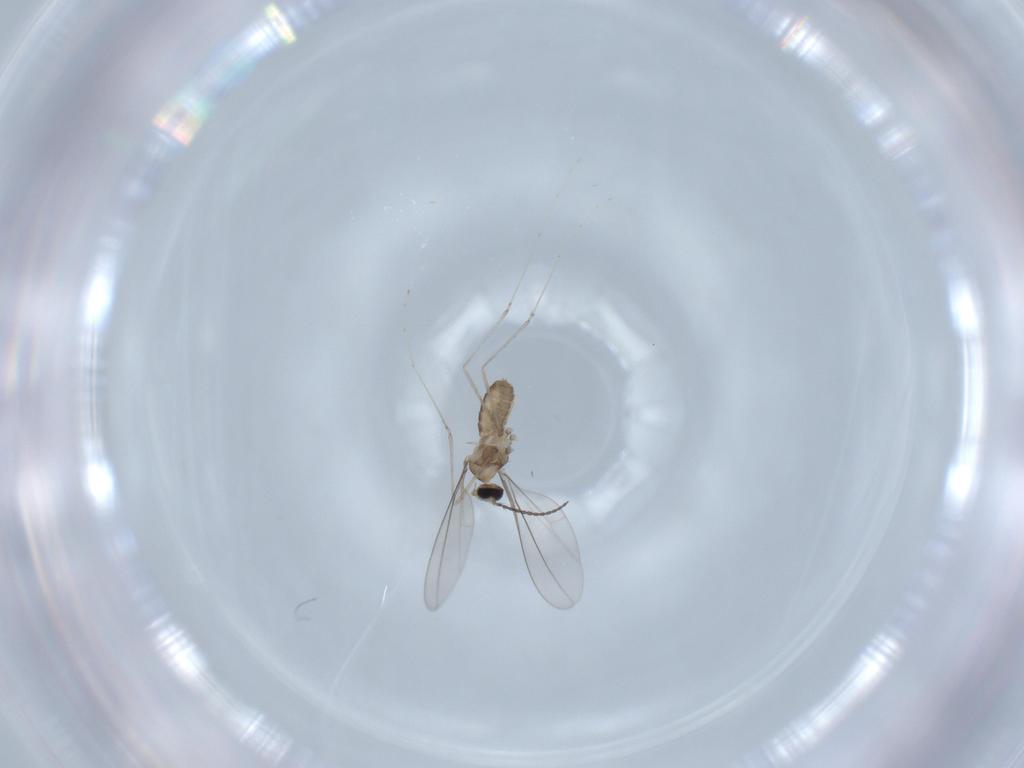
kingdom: Animalia
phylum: Arthropoda
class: Insecta
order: Diptera
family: Cecidomyiidae
